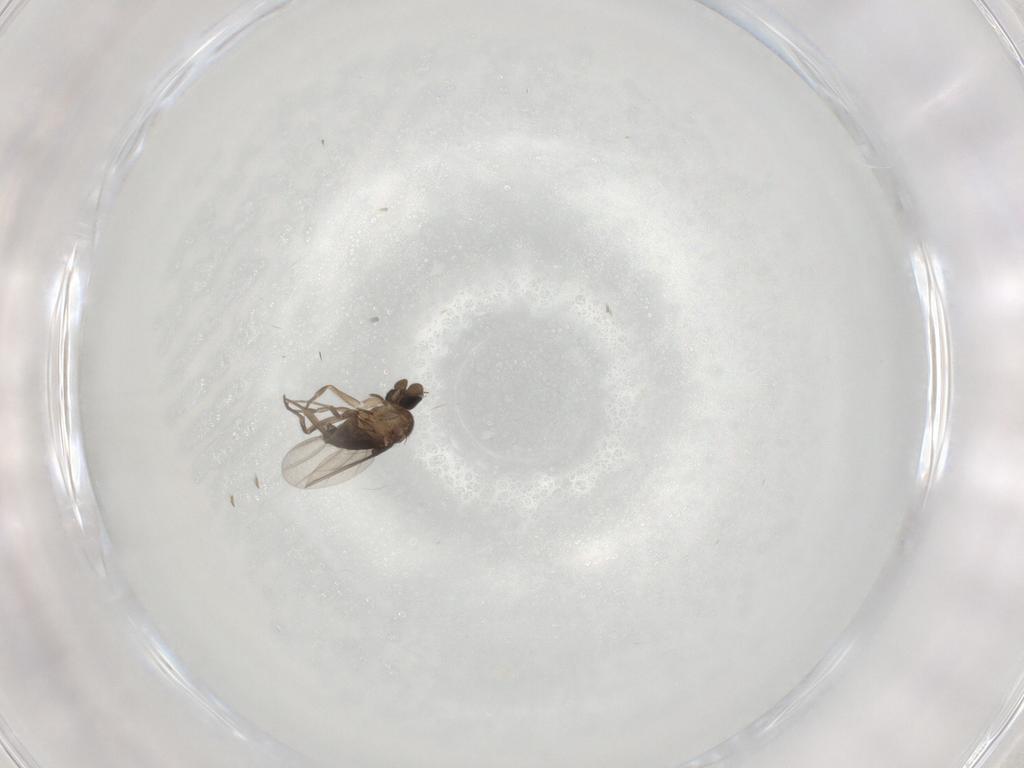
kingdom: Animalia
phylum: Arthropoda
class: Insecta
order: Diptera
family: Phoridae
